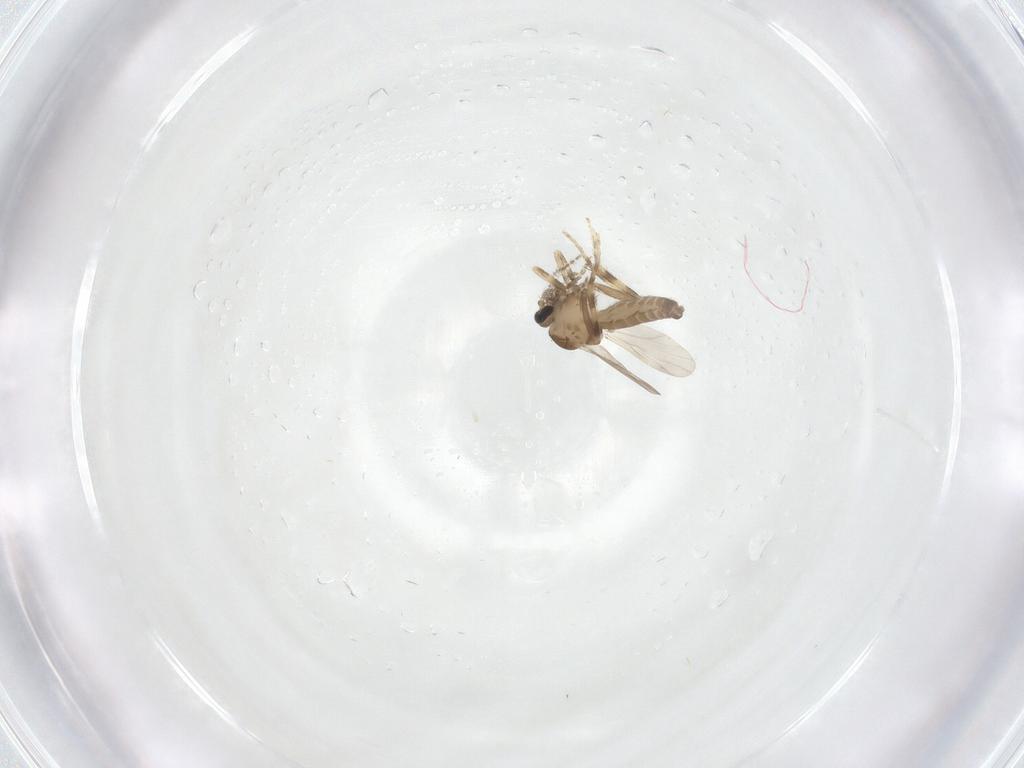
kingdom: Animalia
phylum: Arthropoda
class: Insecta
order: Diptera
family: Ceratopogonidae
